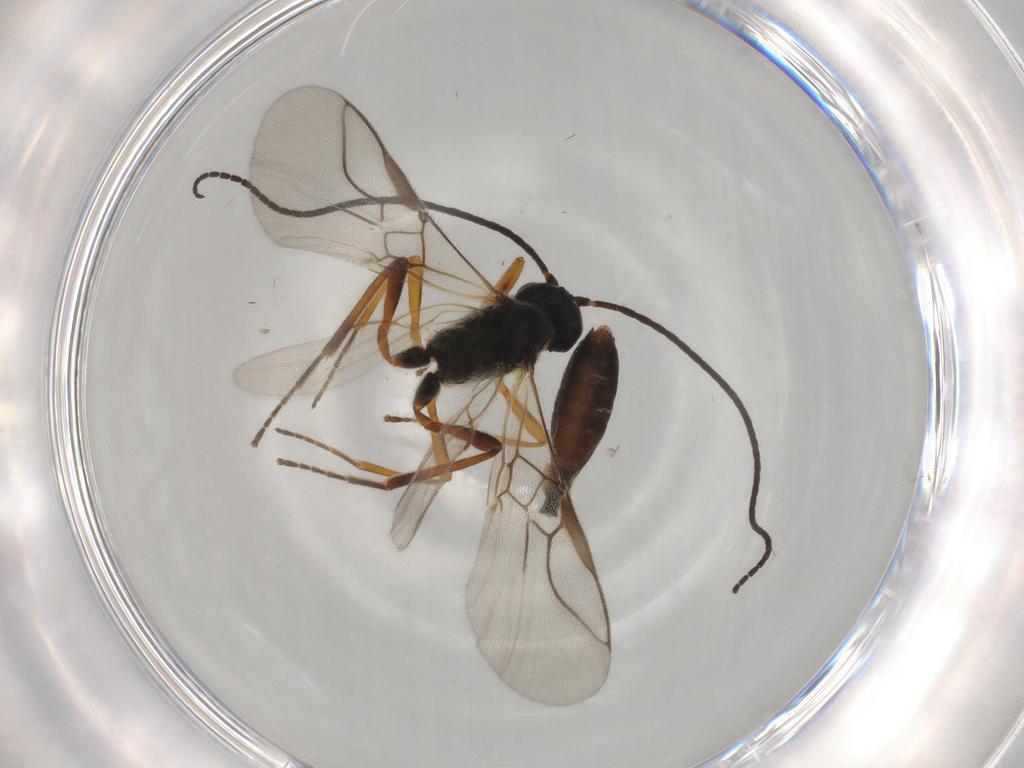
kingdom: Animalia
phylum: Arthropoda
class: Insecta
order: Hymenoptera
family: Braconidae
